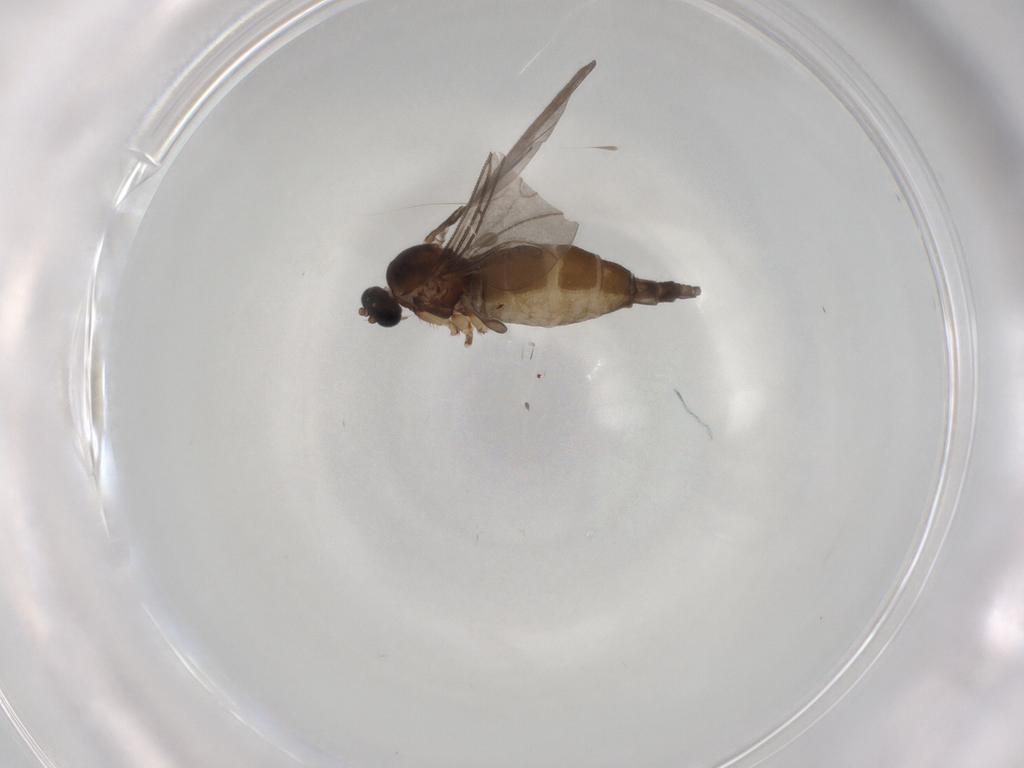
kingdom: Animalia
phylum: Arthropoda
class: Insecta
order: Diptera
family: Sciaridae
